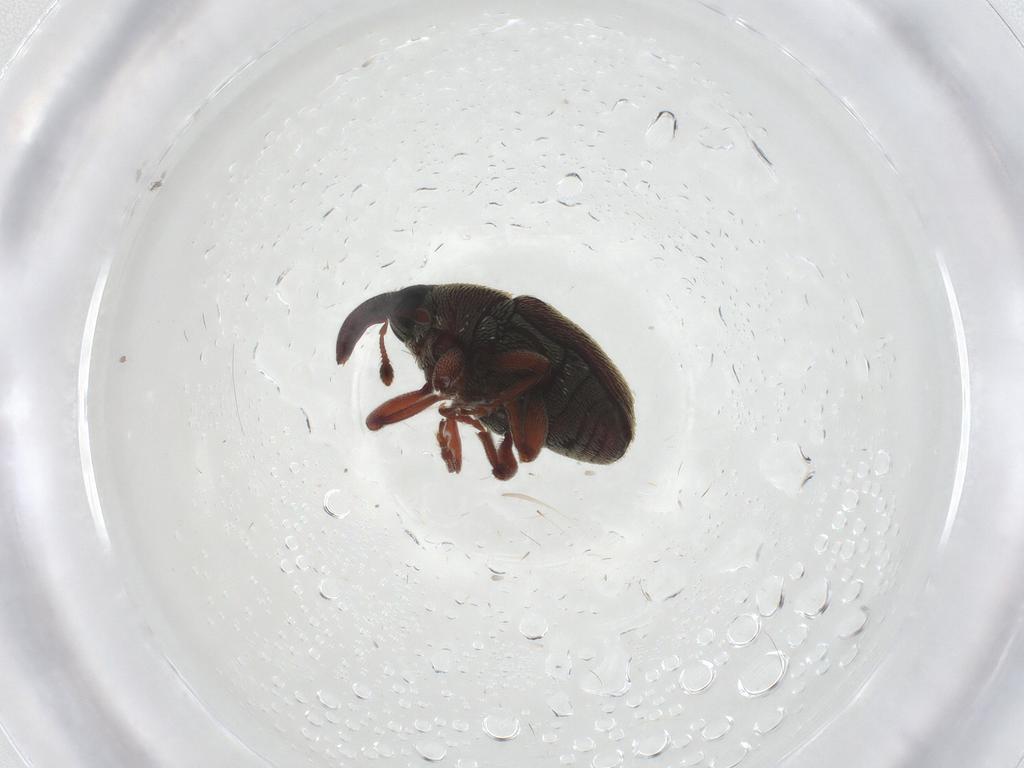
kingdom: Animalia
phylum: Arthropoda
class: Insecta
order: Coleoptera
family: Curculionidae
